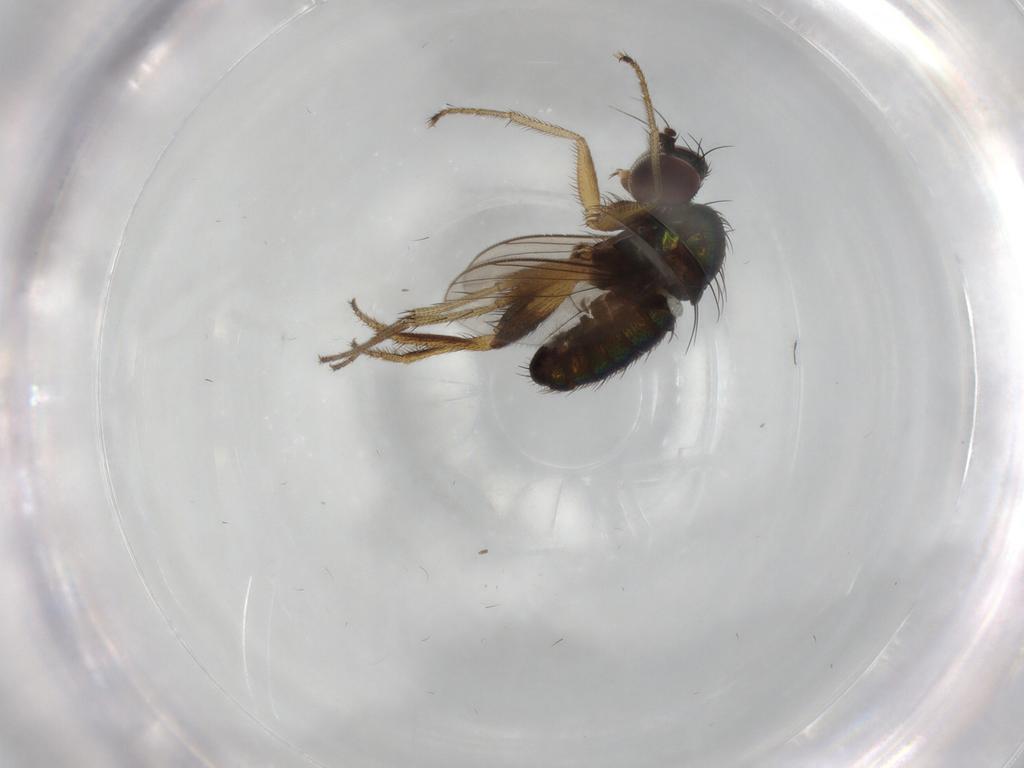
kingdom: Animalia
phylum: Arthropoda
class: Insecta
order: Diptera
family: Dolichopodidae
